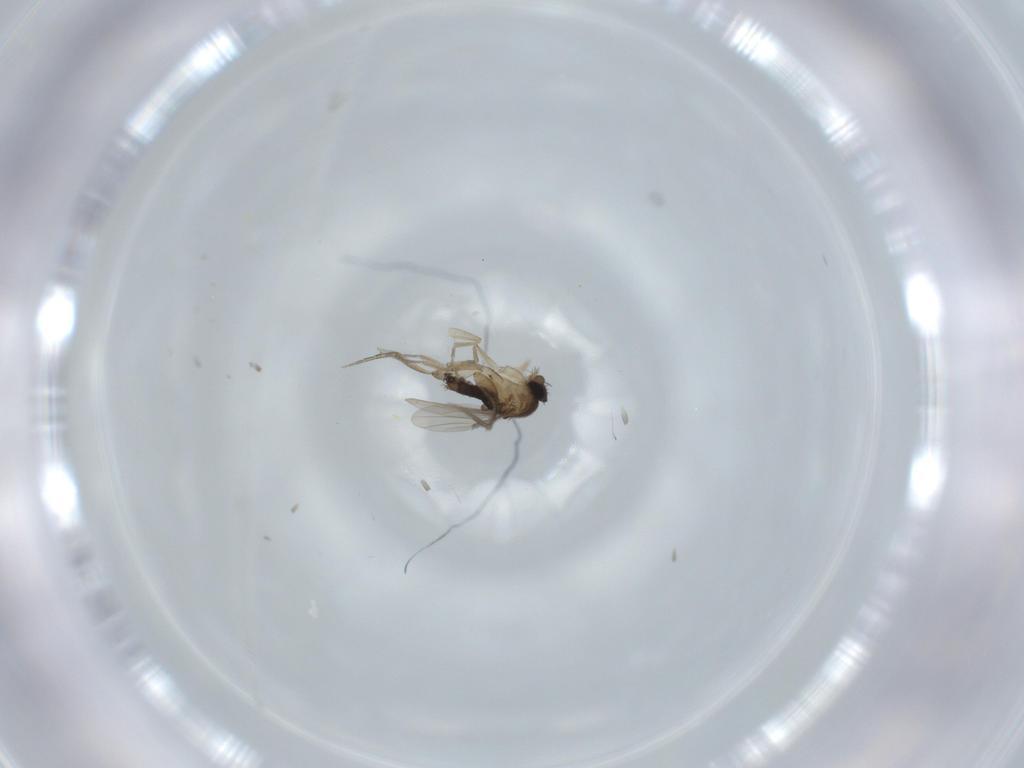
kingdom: Animalia
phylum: Arthropoda
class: Insecta
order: Diptera
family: Phoridae
